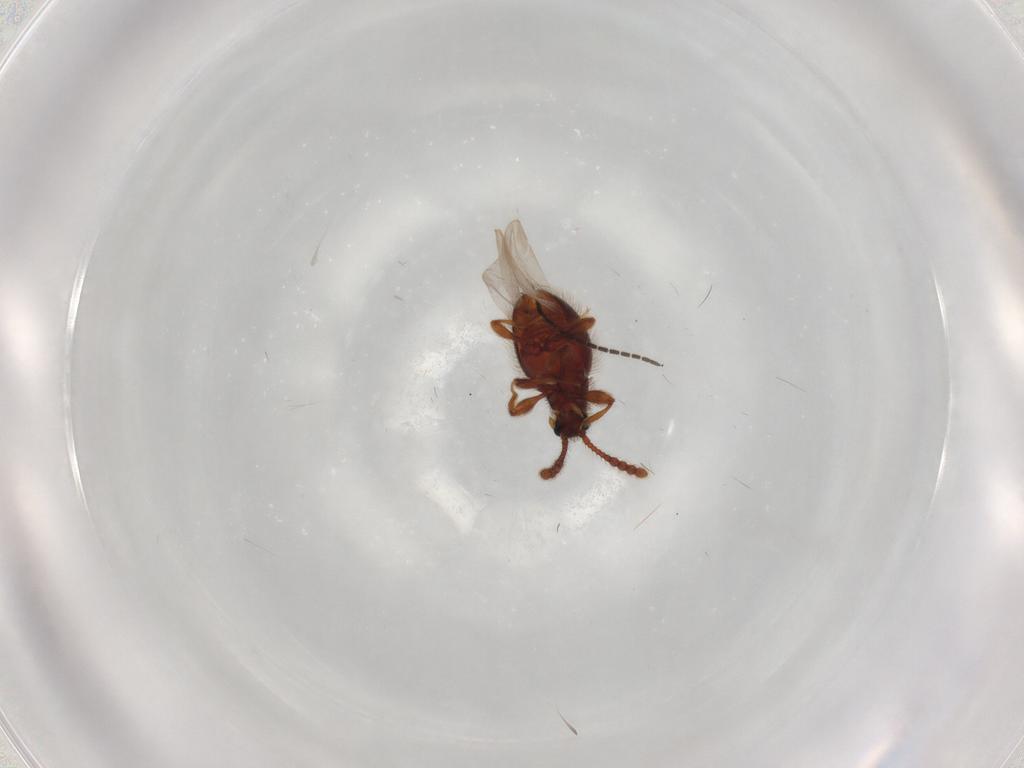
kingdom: Animalia
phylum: Arthropoda
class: Insecta
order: Coleoptera
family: Staphylinidae
